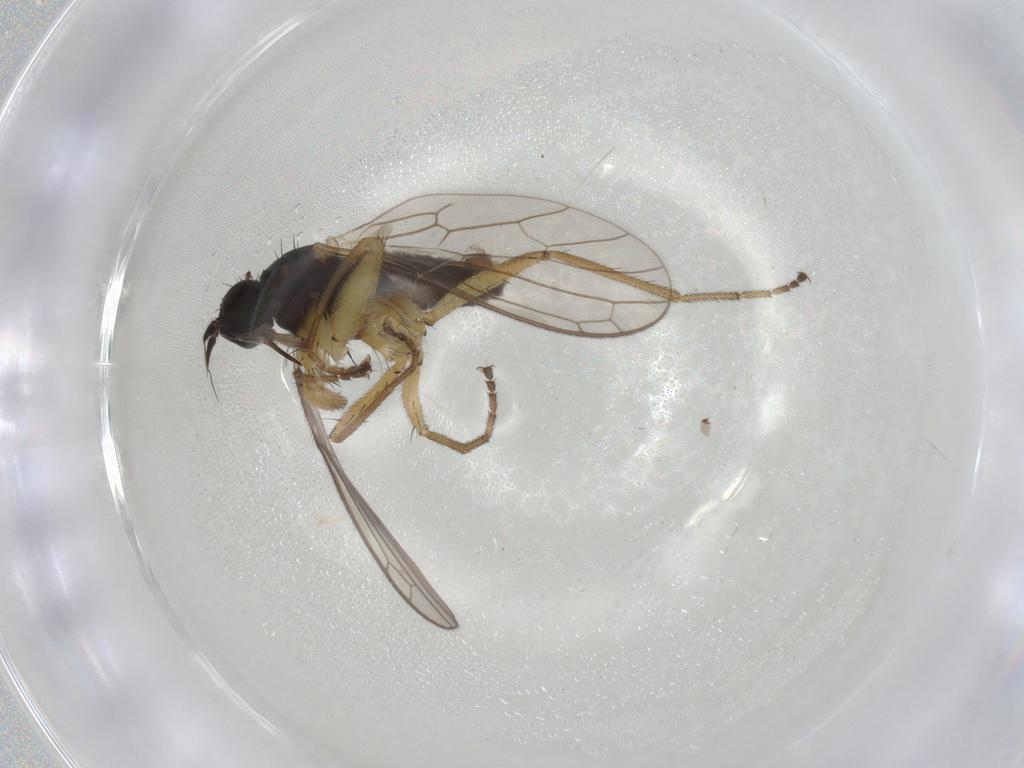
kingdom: Animalia
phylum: Arthropoda
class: Insecta
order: Diptera
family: Empididae
